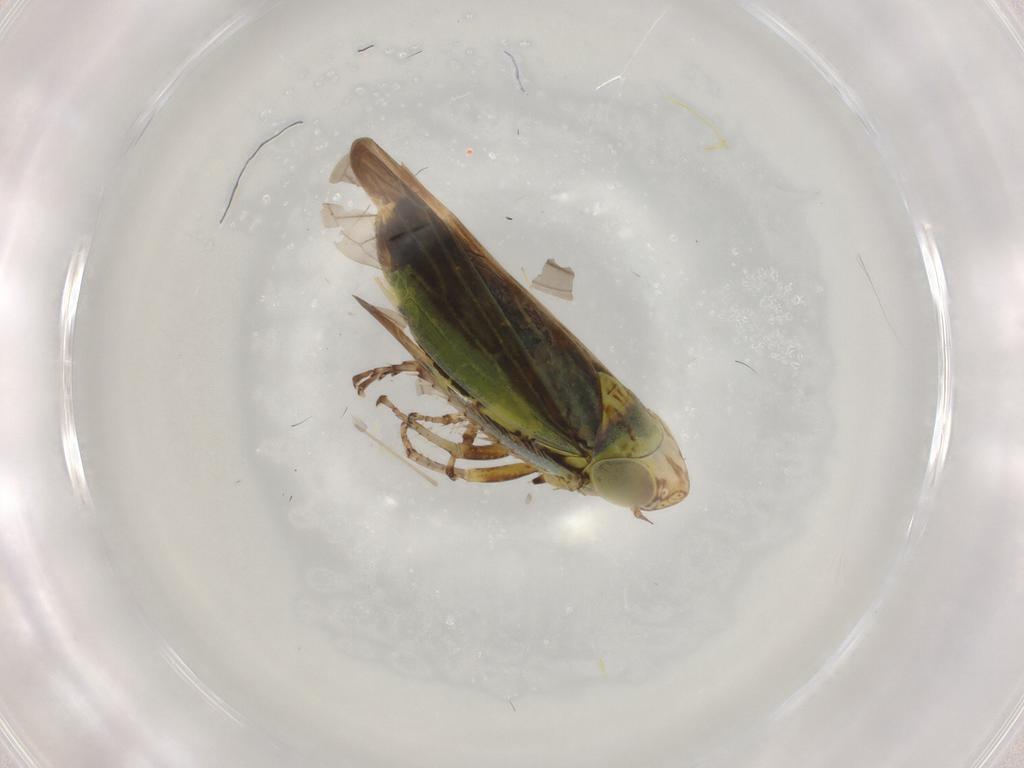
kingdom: Animalia
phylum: Arthropoda
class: Insecta
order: Hemiptera
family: Cicadellidae
